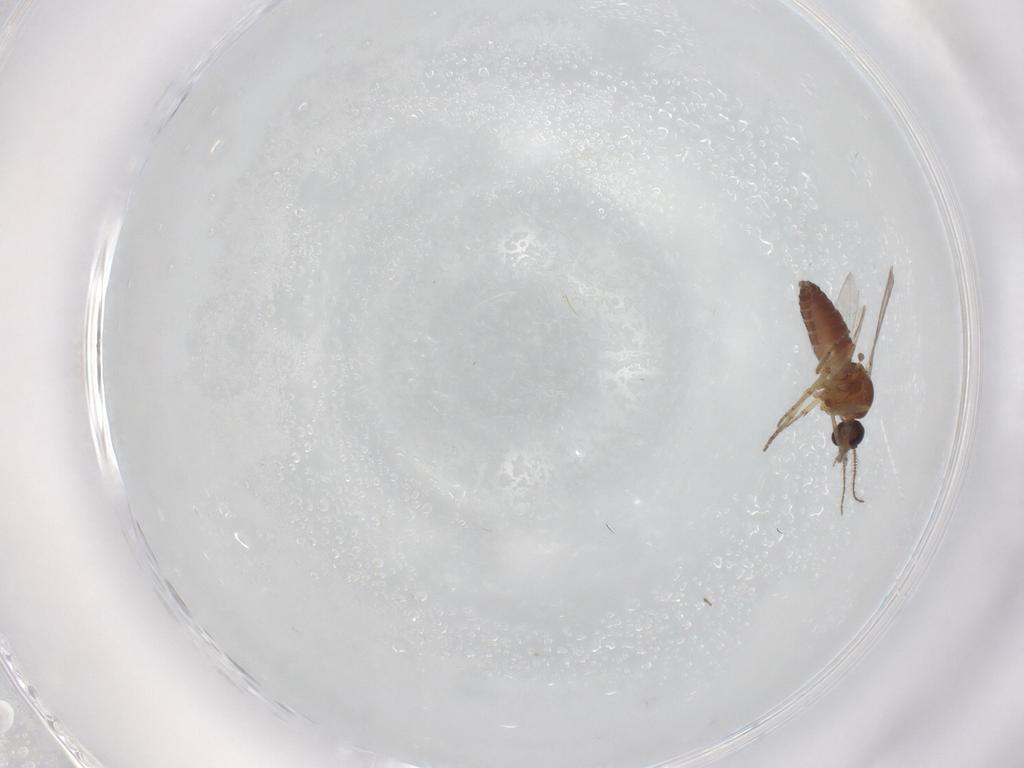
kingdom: Animalia
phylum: Arthropoda
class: Insecta
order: Diptera
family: Ceratopogonidae
